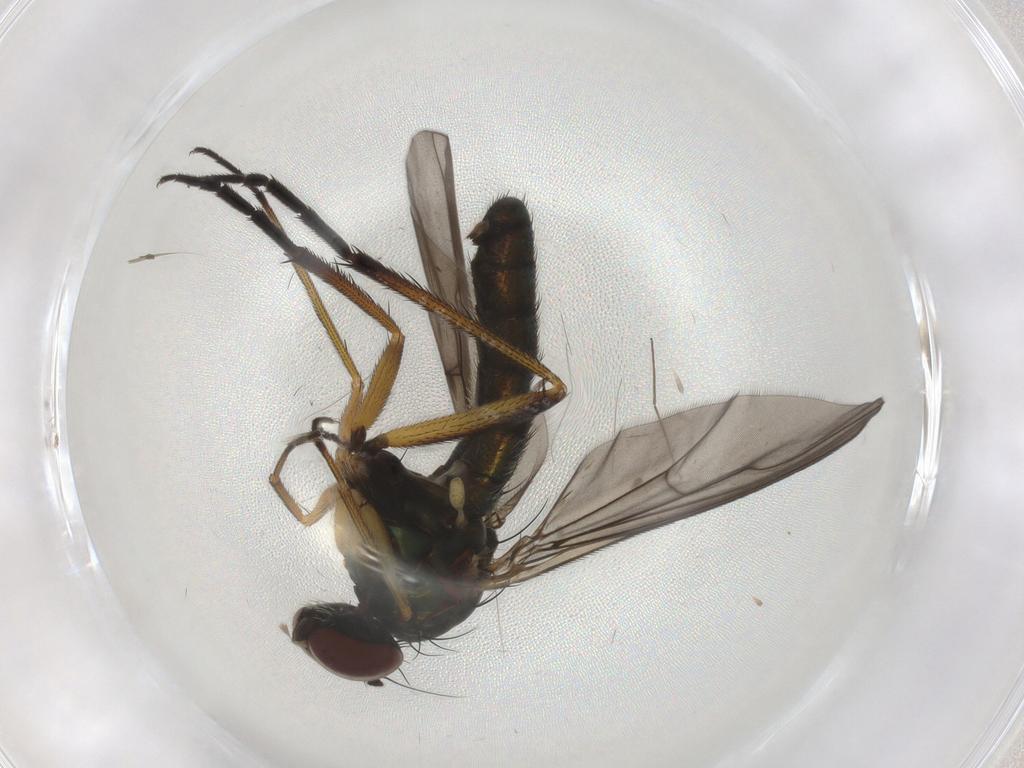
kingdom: Animalia
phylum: Arthropoda
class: Insecta
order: Diptera
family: Dolichopodidae
